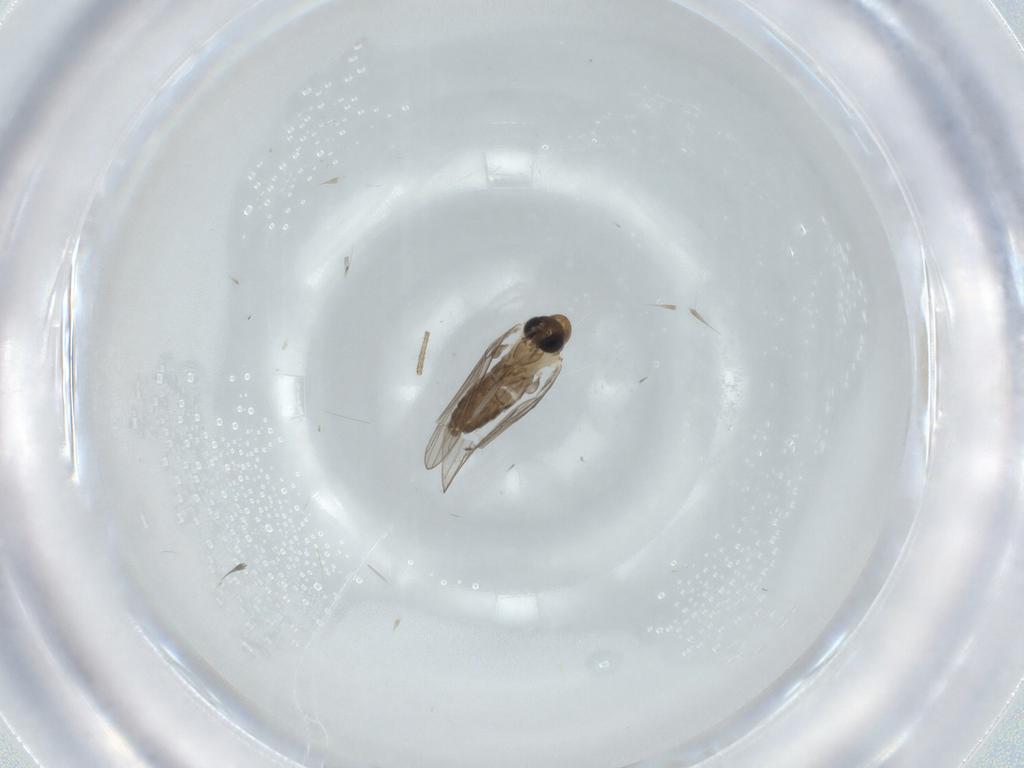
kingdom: Animalia
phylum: Arthropoda
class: Insecta
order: Diptera
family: Psychodidae
